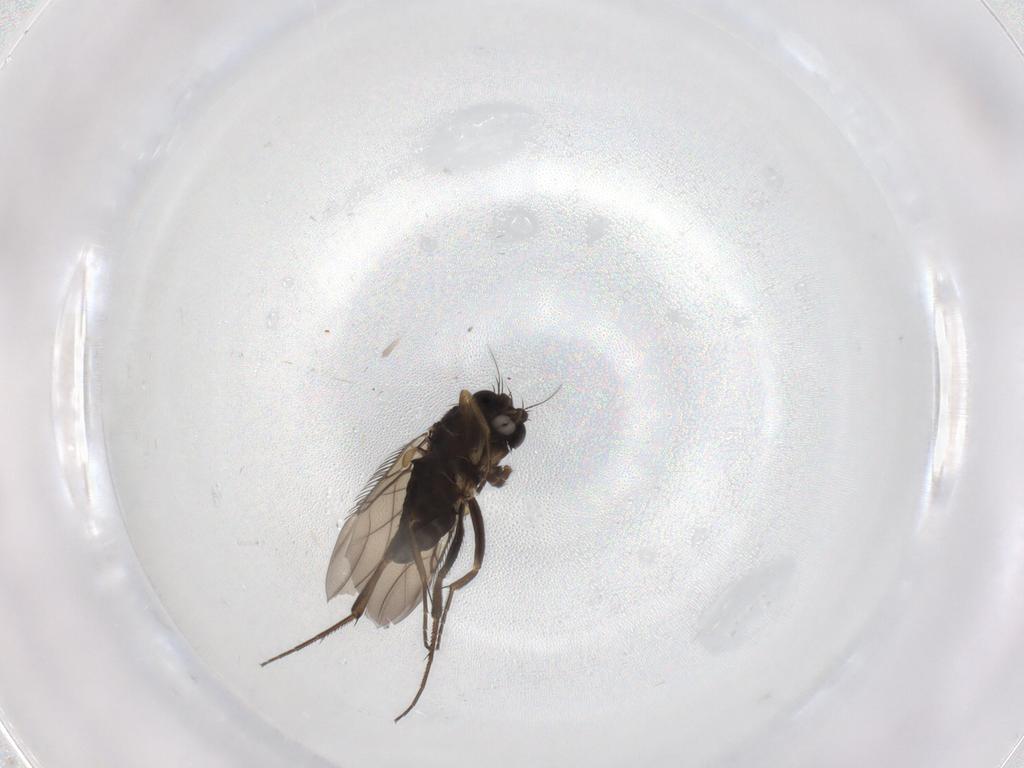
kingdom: Animalia
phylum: Arthropoda
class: Insecta
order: Diptera
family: Phoridae
